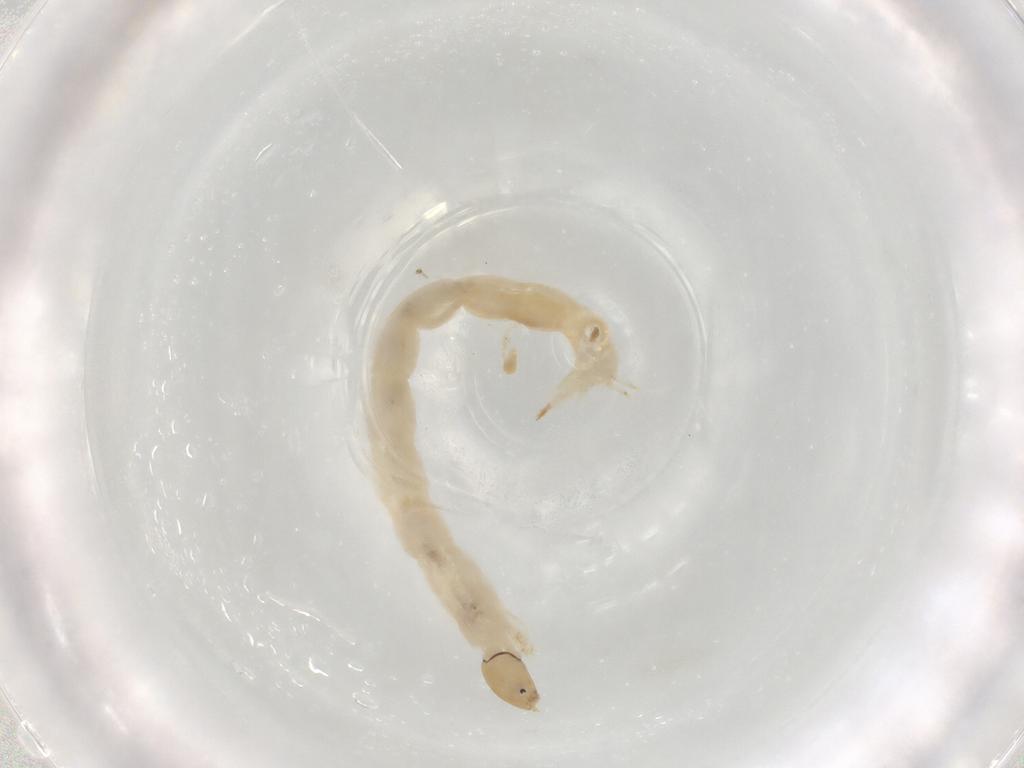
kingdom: Animalia
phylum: Arthropoda
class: Insecta
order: Diptera
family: Chironomidae
